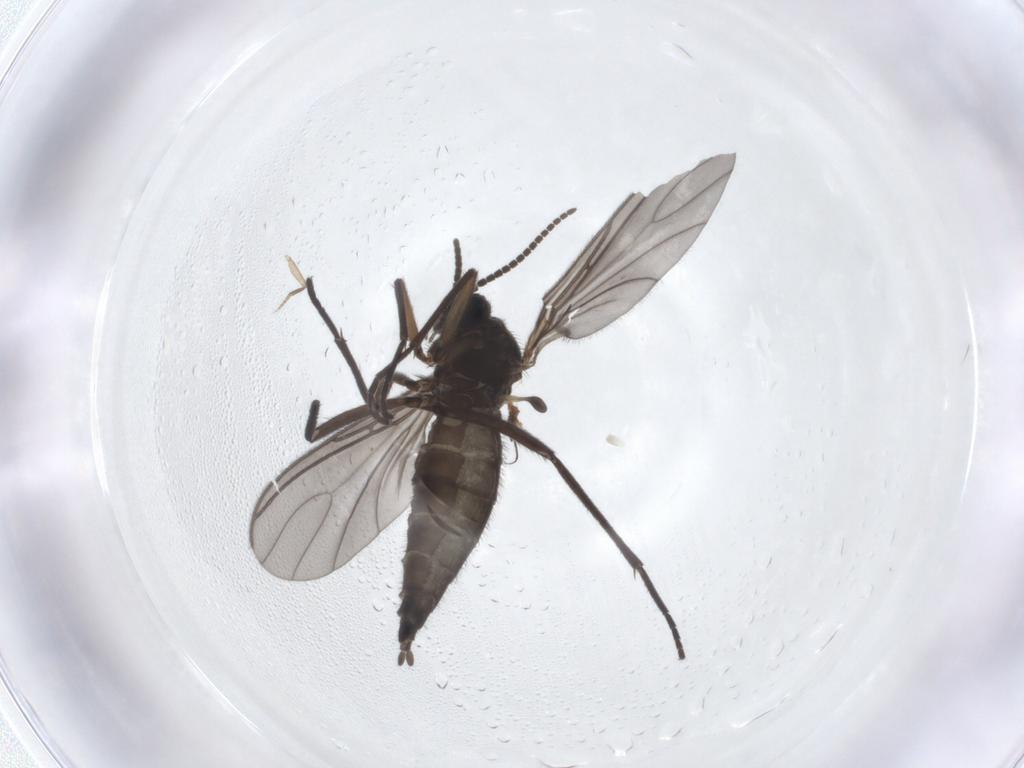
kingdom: Animalia
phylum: Arthropoda
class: Insecta
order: Diptera
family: Sciaridae
